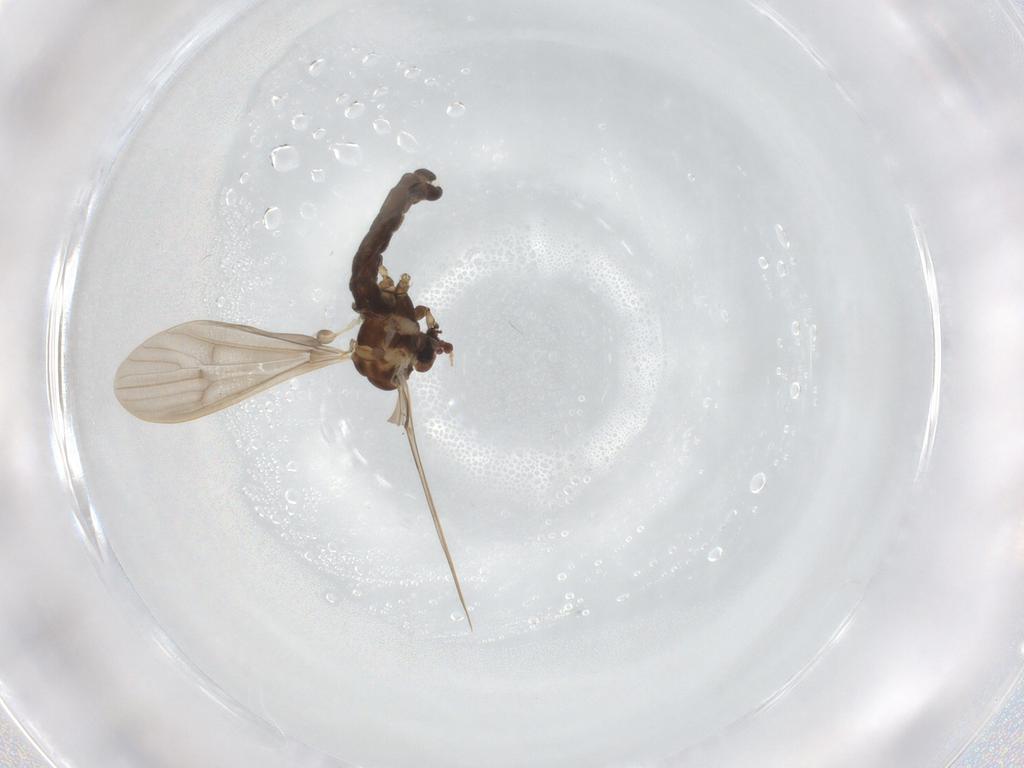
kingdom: Animalia
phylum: Arthropoda
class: Insecta
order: Diptera
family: Limoniidae
